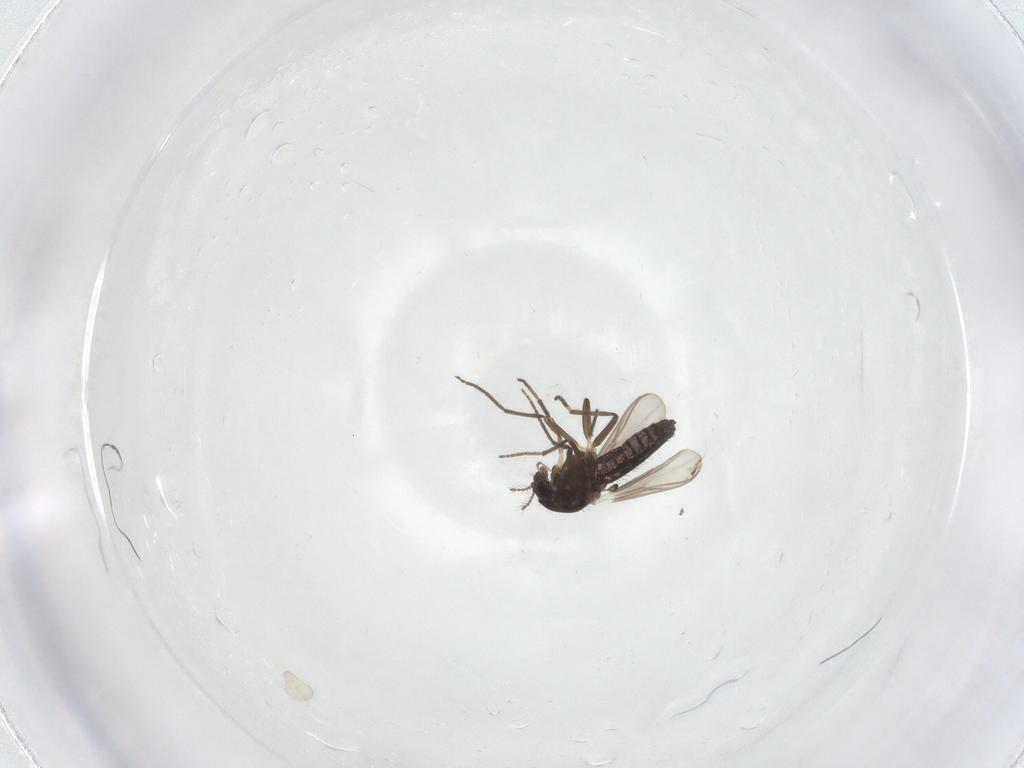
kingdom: Animalia
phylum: Arthropoda
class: Insecta
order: Diptera
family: Chironomidae
